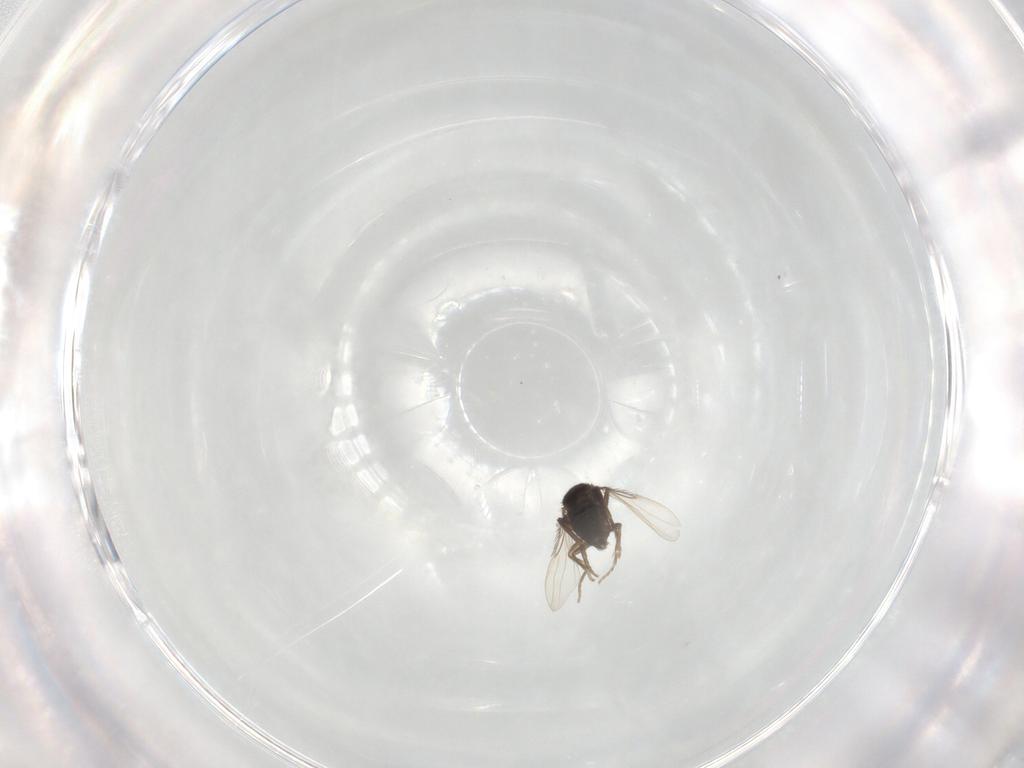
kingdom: Animalia
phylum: Arthropoda
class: Insecta
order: Diptera
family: Phoridae
